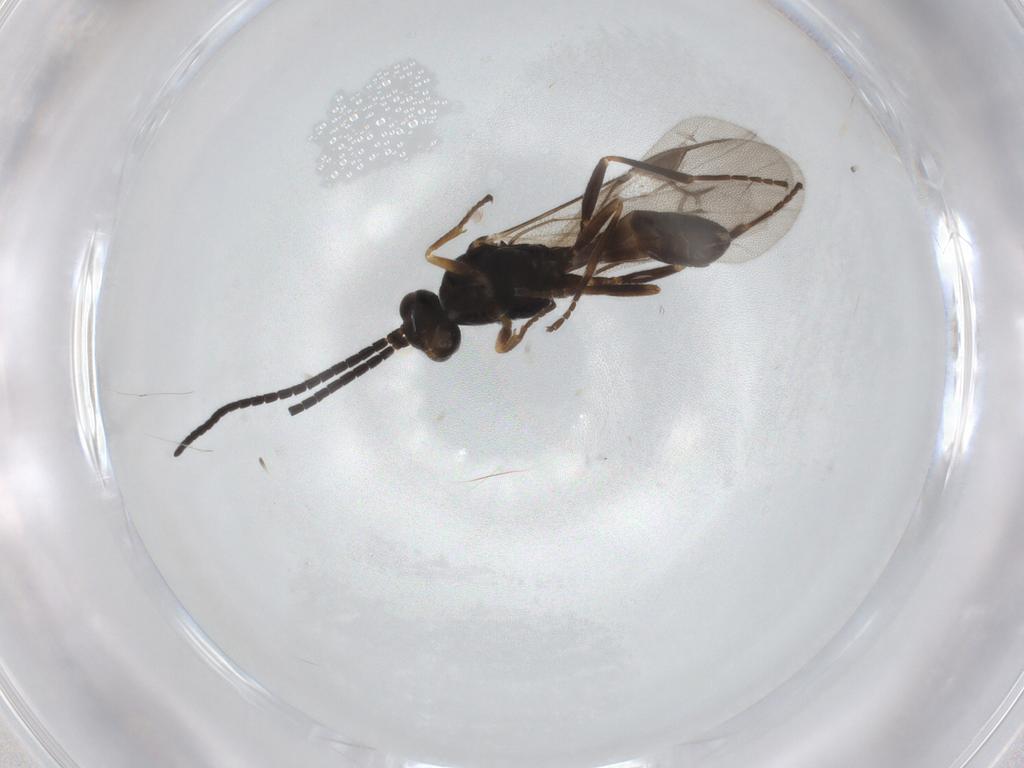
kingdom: Animalia
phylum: Arthropoda
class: Insecta
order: Hymenoptera
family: Braconidae
